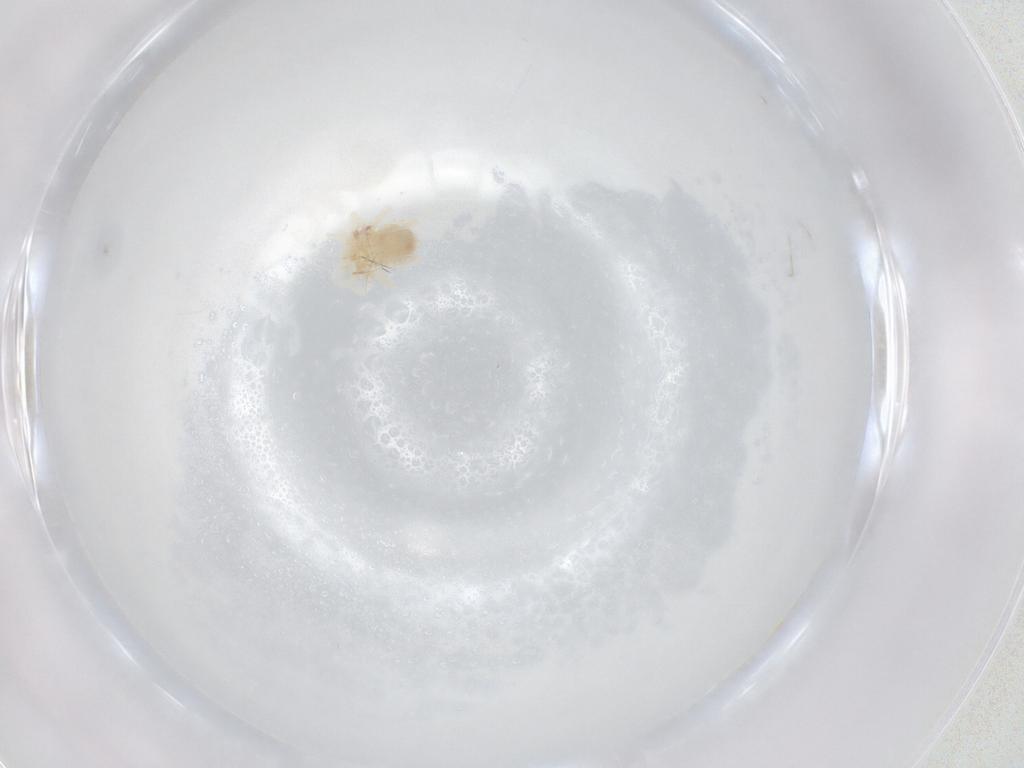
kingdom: Animalia
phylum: Arthropoda
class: Arachnida
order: Trombidiformes
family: Anystidae
